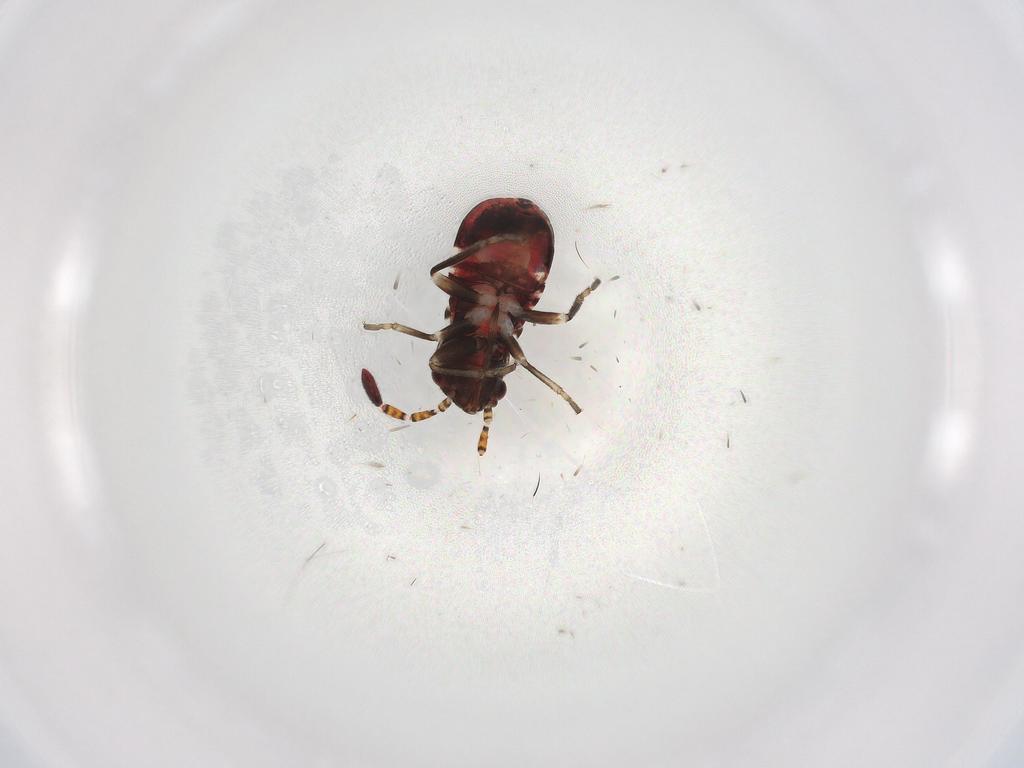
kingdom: Animalia
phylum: Arthropoda
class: Insecta
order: Hemiptera
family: Rhyparochromidae
